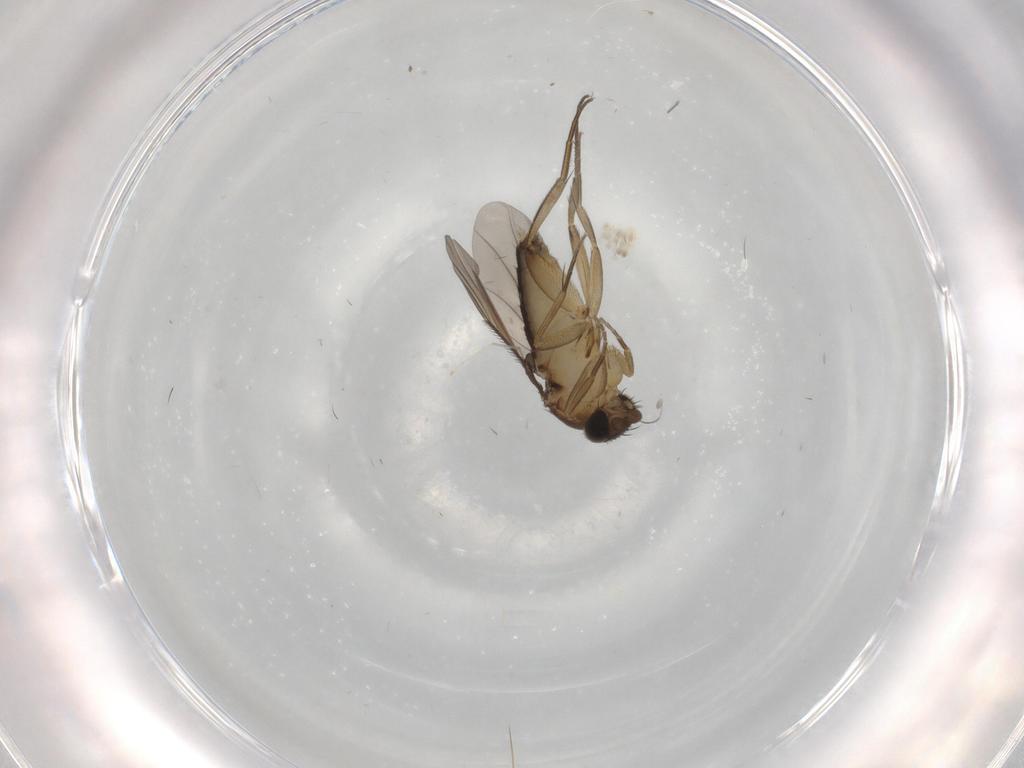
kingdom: Animalia
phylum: Arthropoda
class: Insecta
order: Diptera
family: Phoridae
